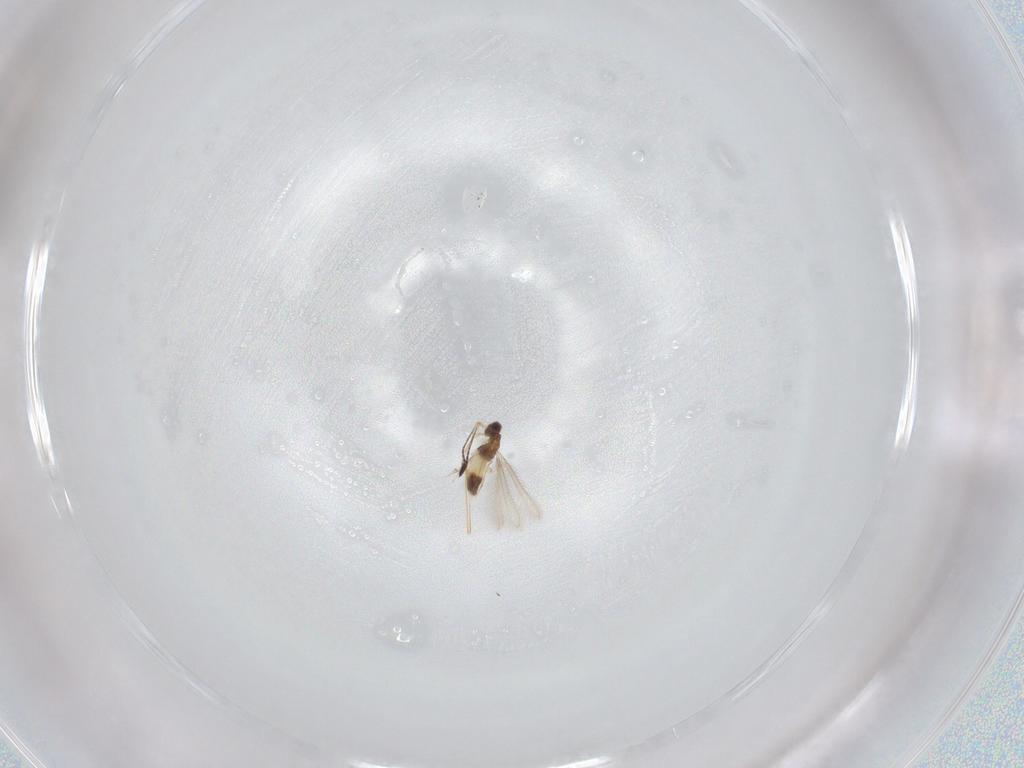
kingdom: Animalia
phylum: Arthropoda
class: Insecta
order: Hymenoptera
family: Mymaridae
